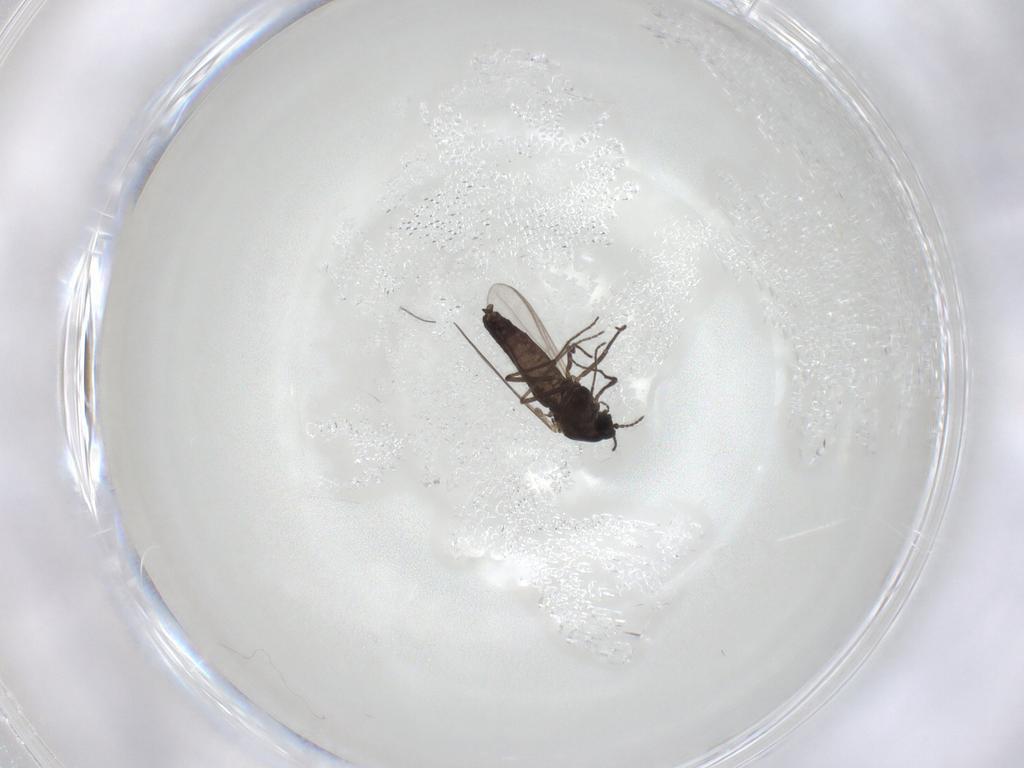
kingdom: Animalia
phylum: Arthropoda
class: Insecta
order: Diptera
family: Chironomidae
